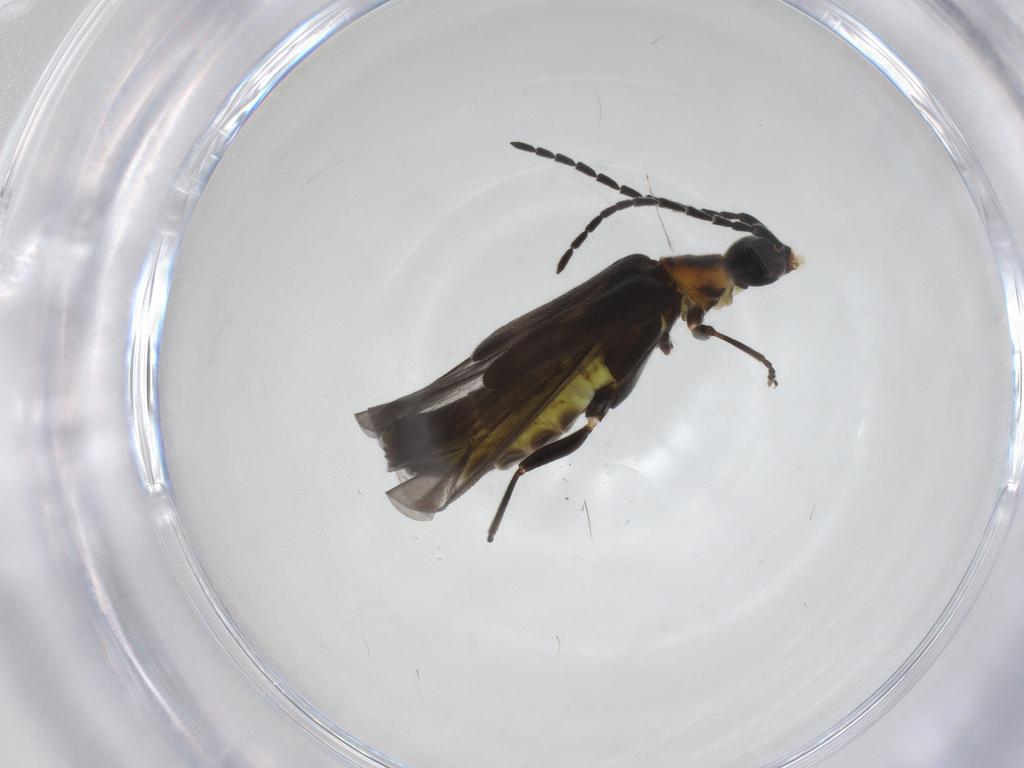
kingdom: Animalia
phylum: Arthropoda
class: Insecta
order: Coleoptera
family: Cantharidae
